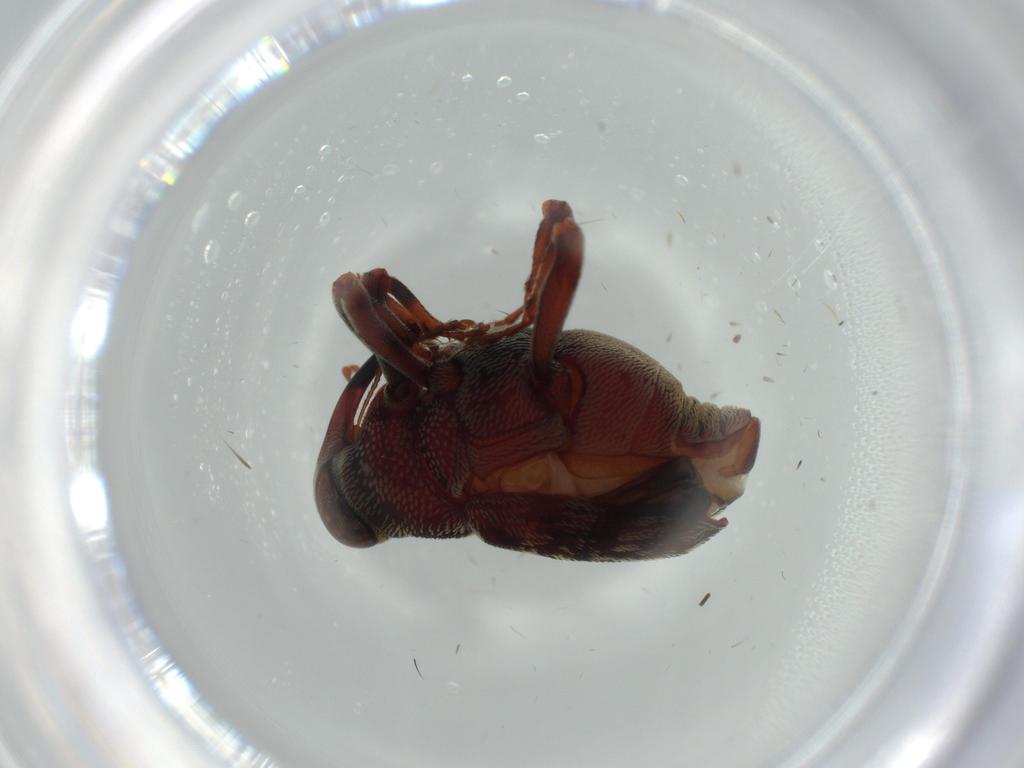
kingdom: Animalia
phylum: Arthropoda
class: Insecta
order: Coleoptera
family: Curculionidae
